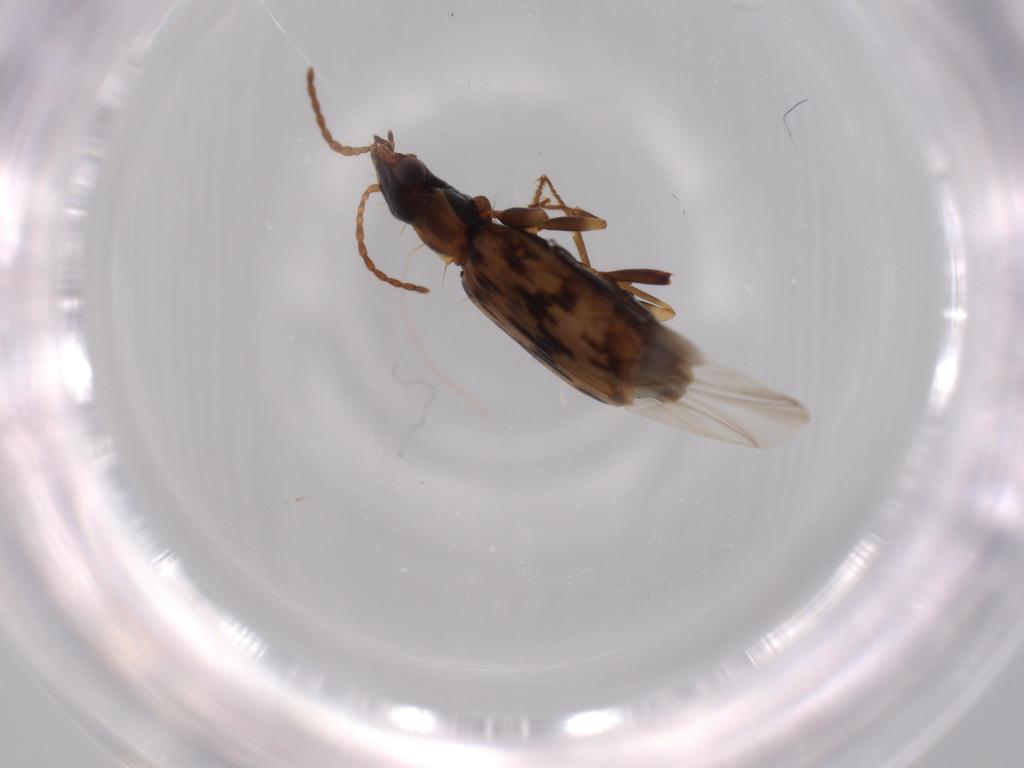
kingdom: Animalia
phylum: Arthropoda
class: Insecta
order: Coleoptera
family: Carabidae
